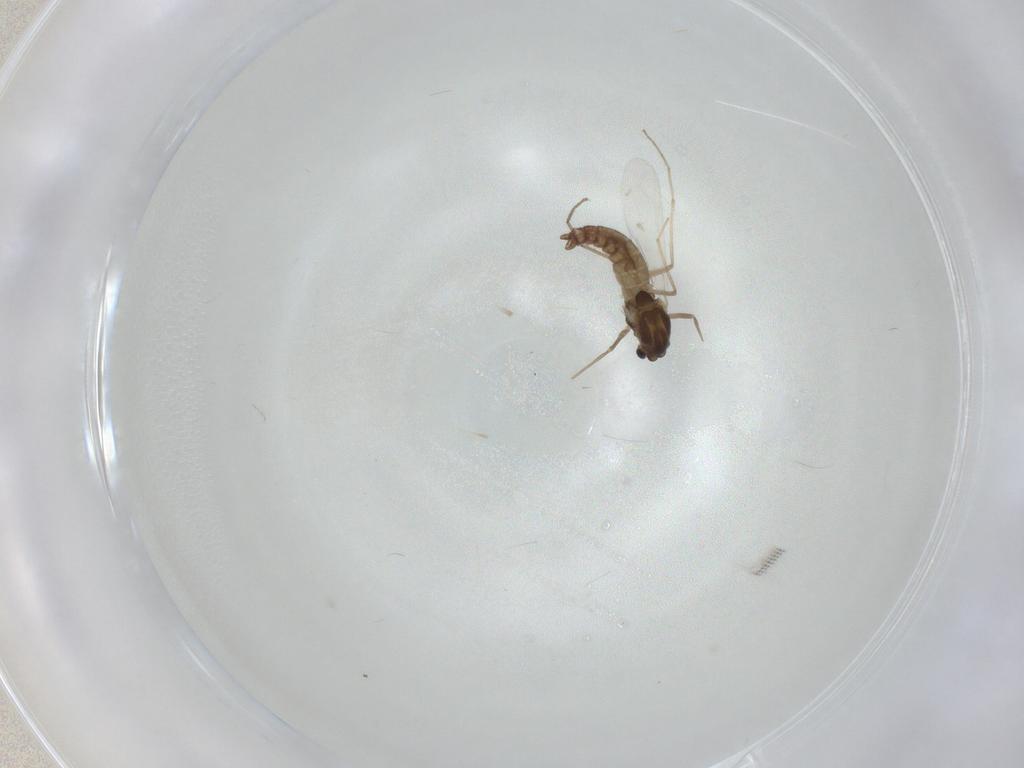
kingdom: Animalia
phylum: Arthropoda
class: Insecta
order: Diptera
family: Chironomidae
